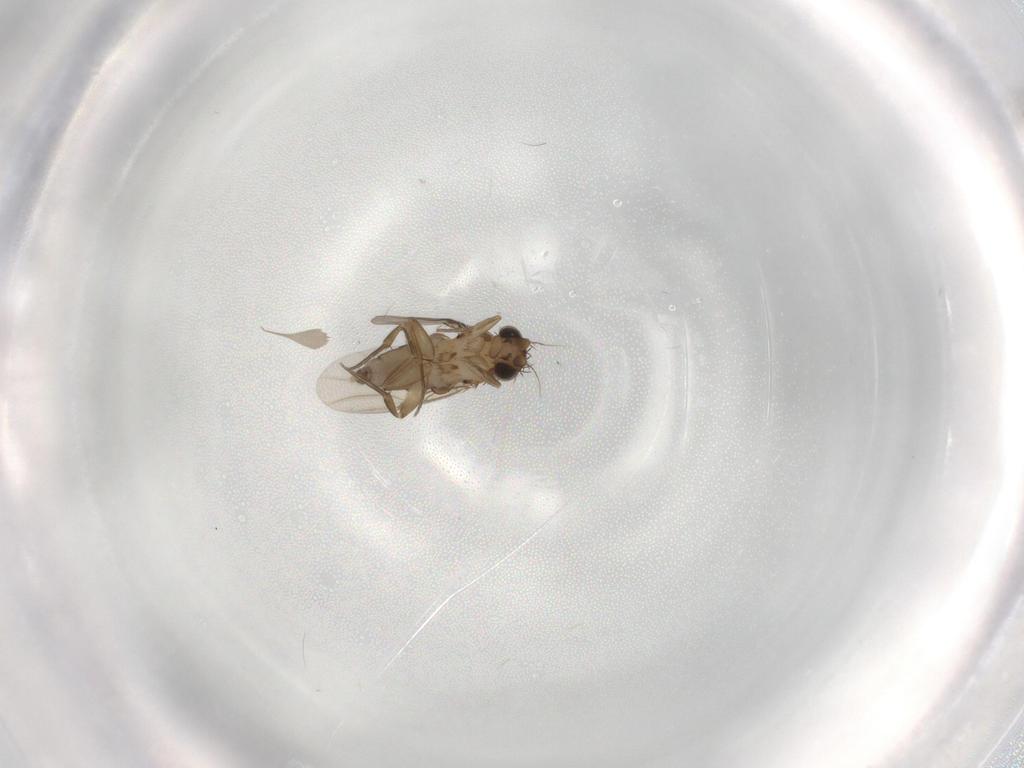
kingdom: Animalia
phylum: Arthropoda
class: Insecta
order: Diptera
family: Phoridae
